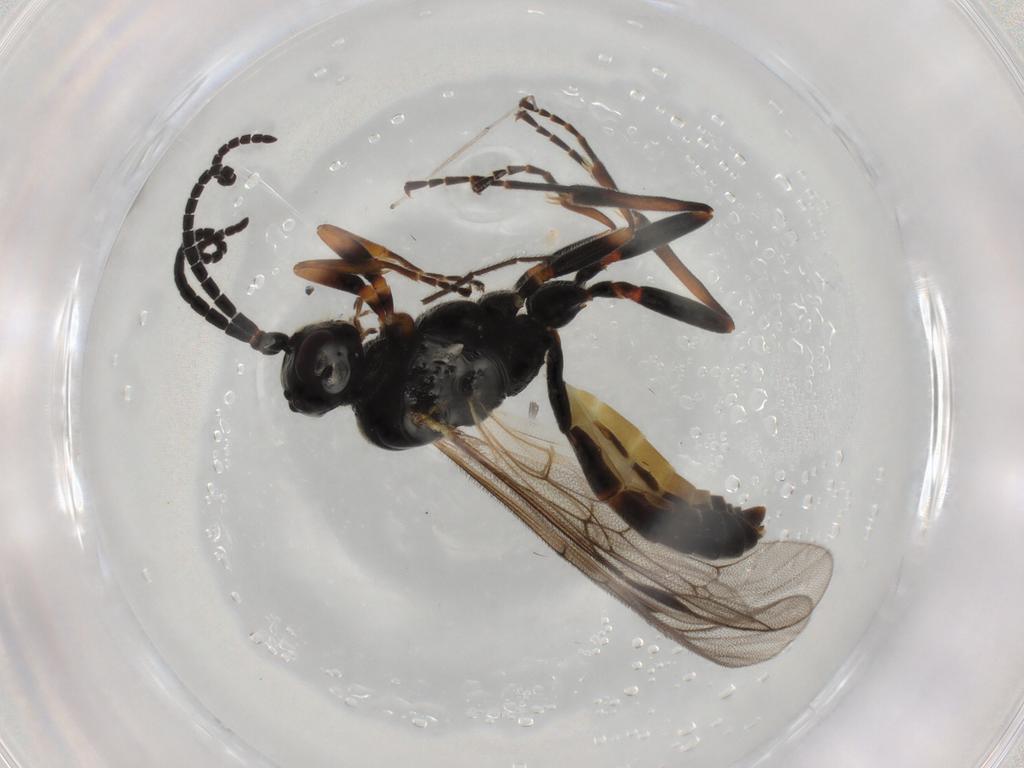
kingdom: Animalia
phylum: Arthropoda
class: Insecta
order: Hymenoptera
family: Ichneumonidae
